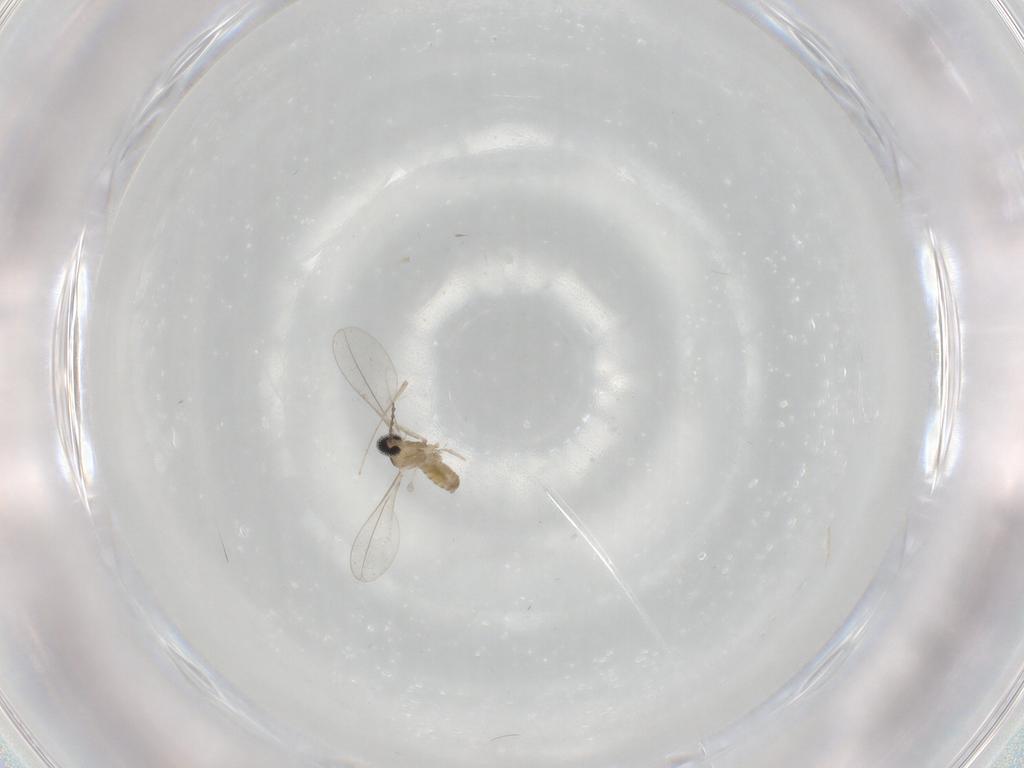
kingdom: Animalia
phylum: Arthropoda
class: Insecta
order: Diptera
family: Cecidomyiidae
